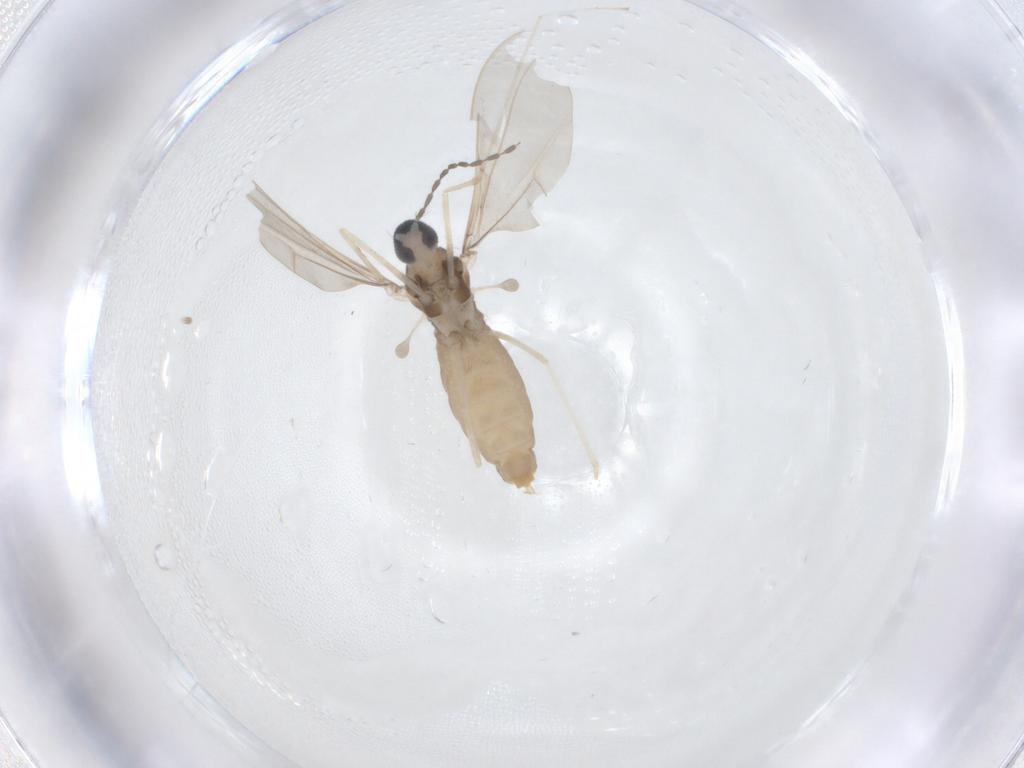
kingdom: Animalia
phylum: Arthropoda
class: Insecta
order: Diptera
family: Cecidomyiidae
